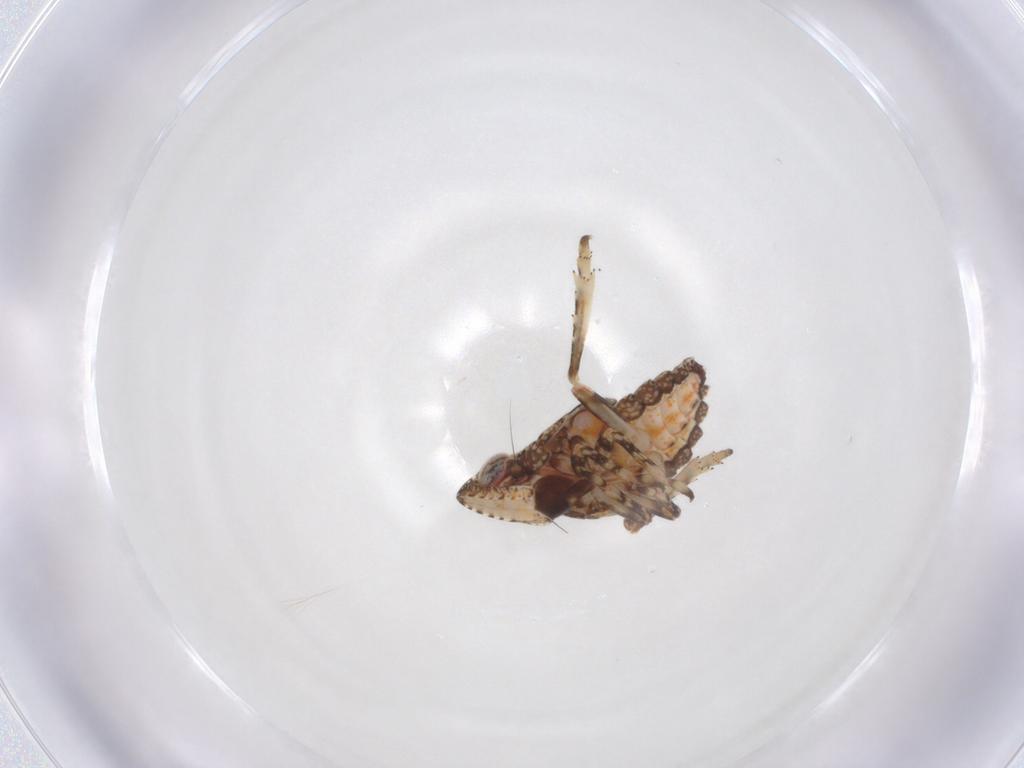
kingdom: Animalia
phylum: Arthropoda
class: Insecta
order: Hemiptera
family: Tropiduchidae
